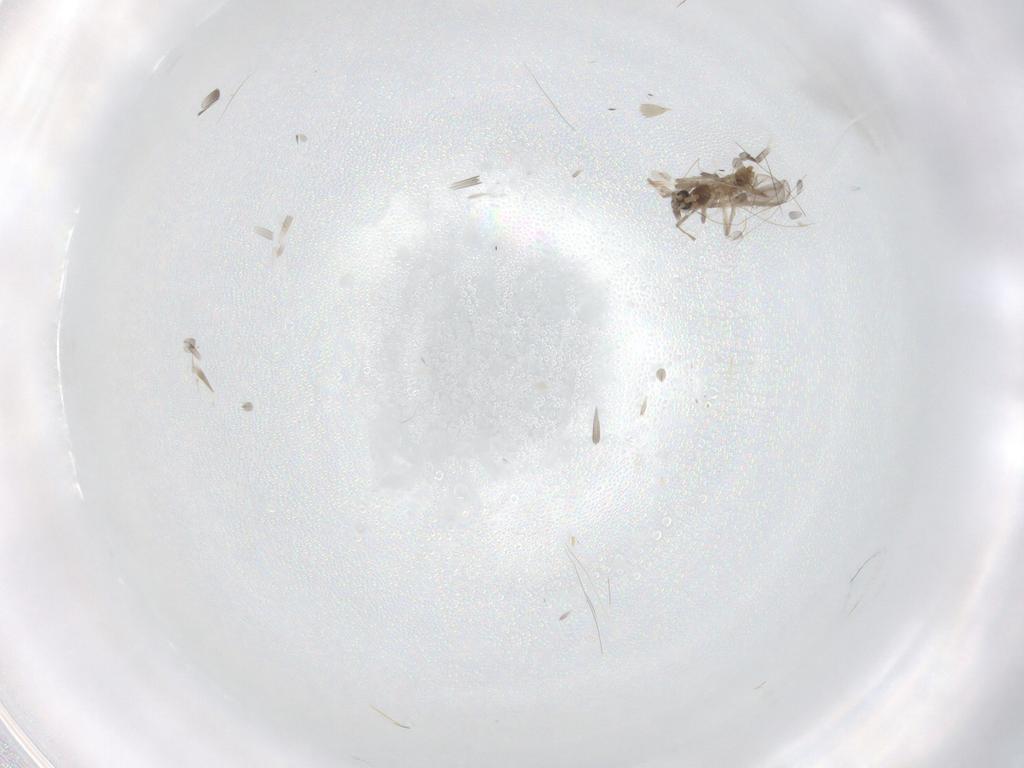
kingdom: Animalia
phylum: Arthropoda
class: Insecta
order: Diptera
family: Chironomidae
